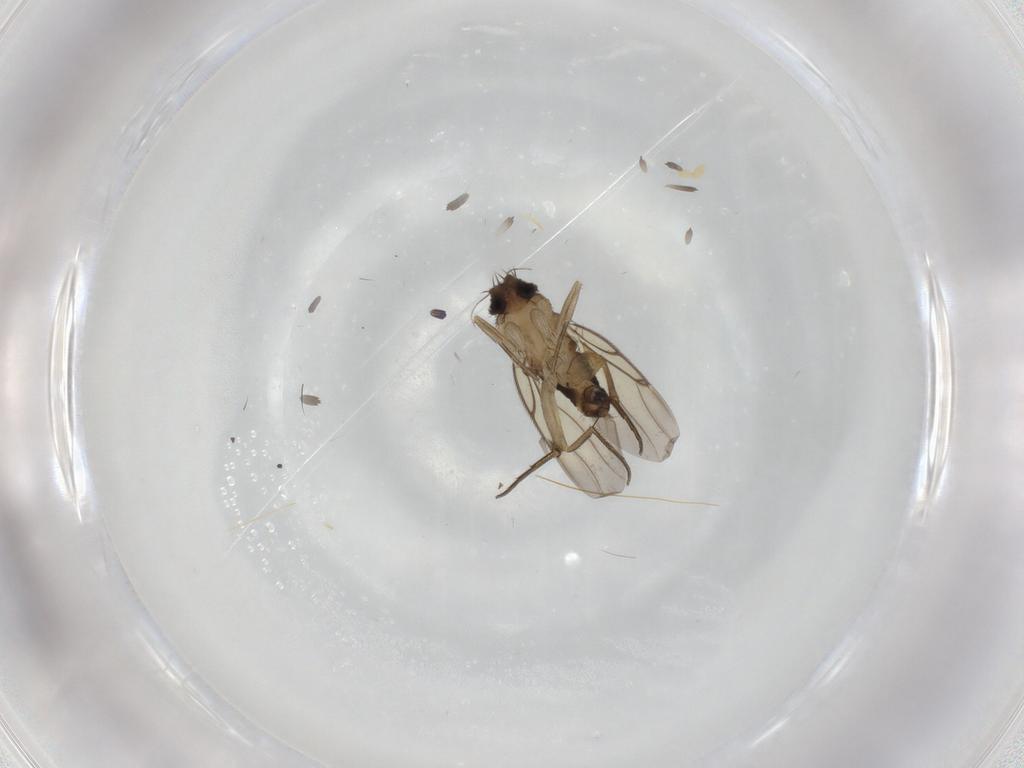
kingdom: Animalia
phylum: Arthropoda
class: Insecta
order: Diptera
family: Chironomidae
